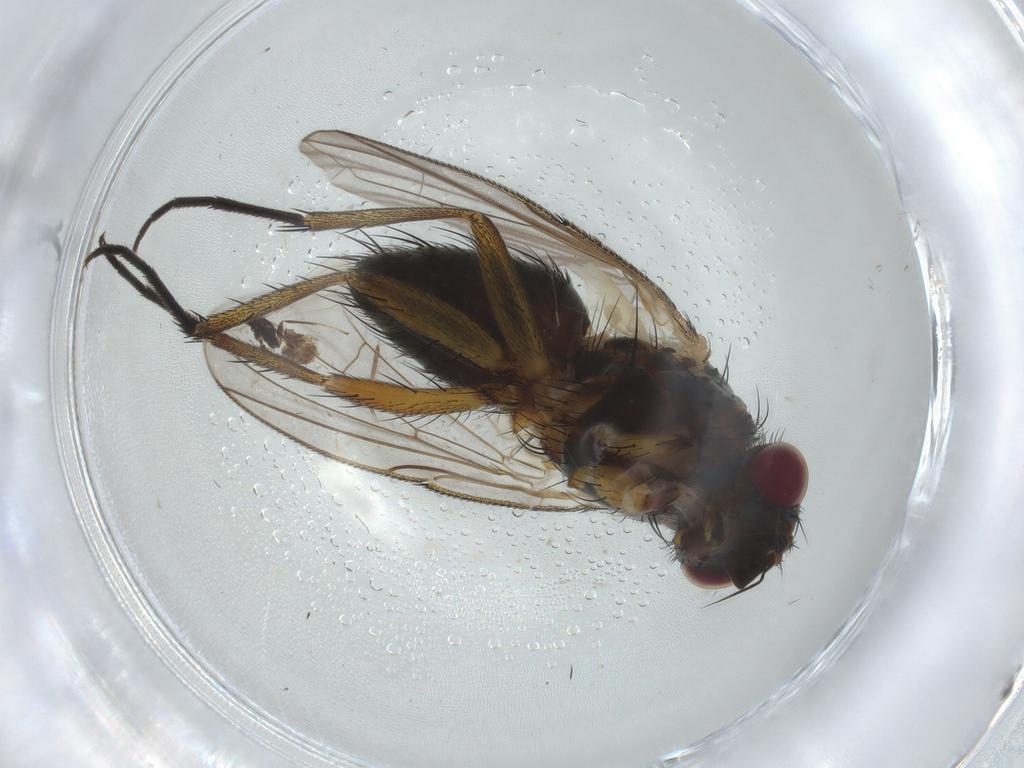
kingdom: Animalia
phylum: Arthropoda
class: Insecta
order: Diptera
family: Anthomyiidae
